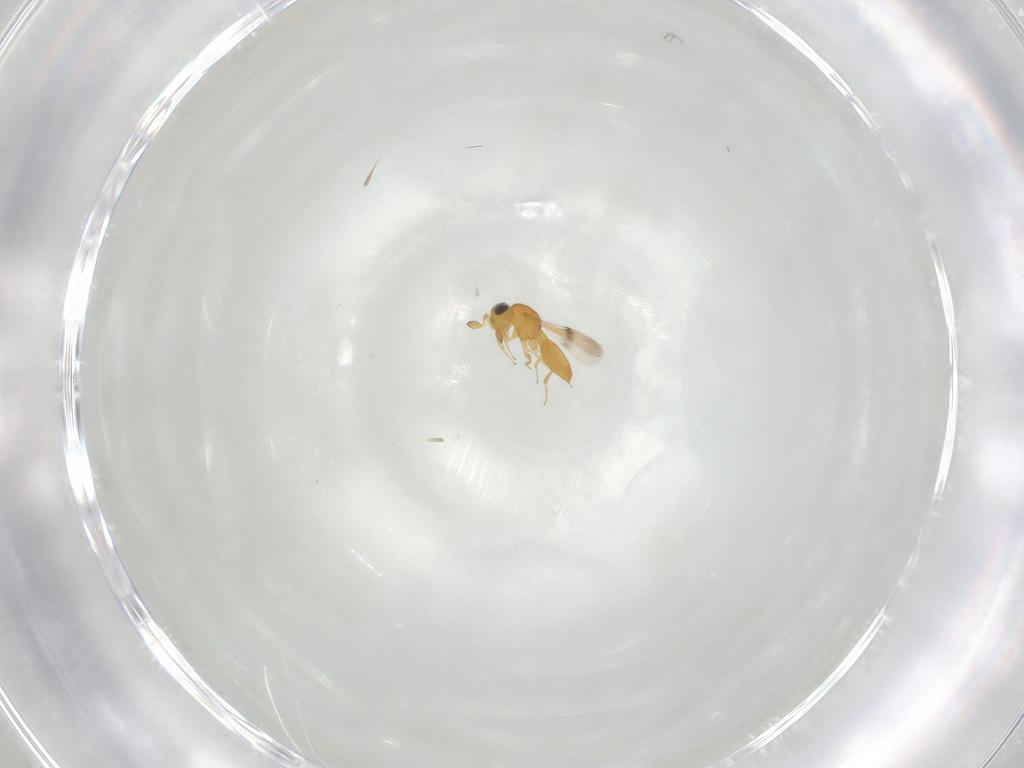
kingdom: Animalia
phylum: Arthropoda
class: Insecta
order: Hymenoptera
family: Scelionidae
